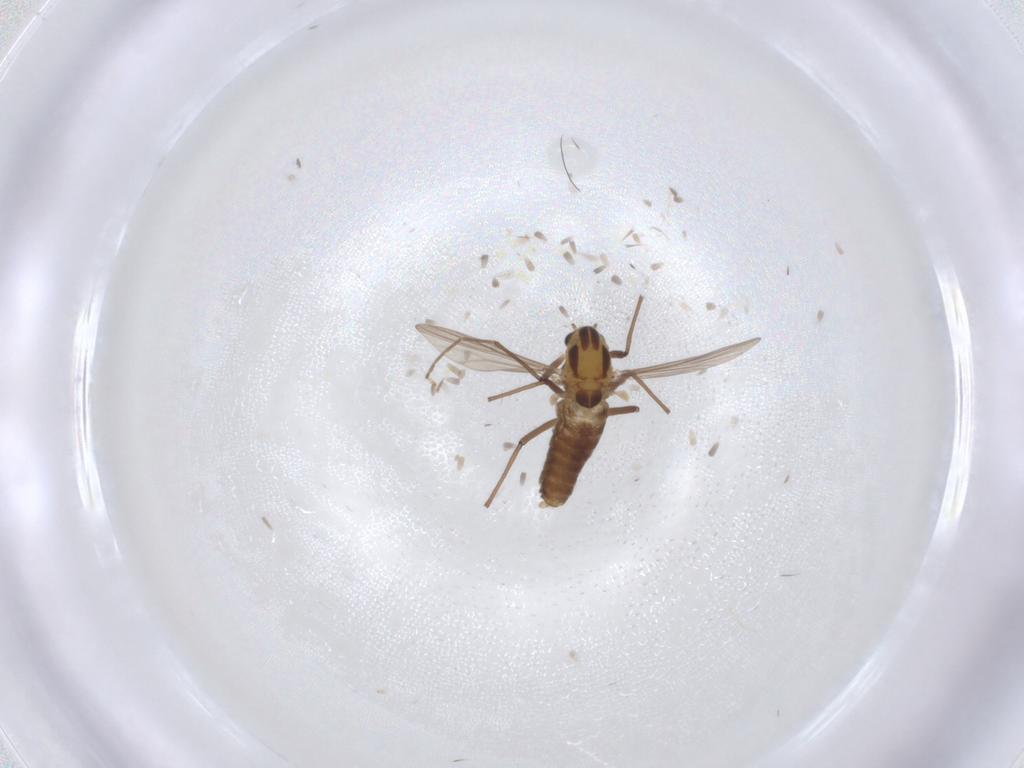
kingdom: Animalia
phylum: Arthropoda
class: Insecta
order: Diptera
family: Chironomidae
